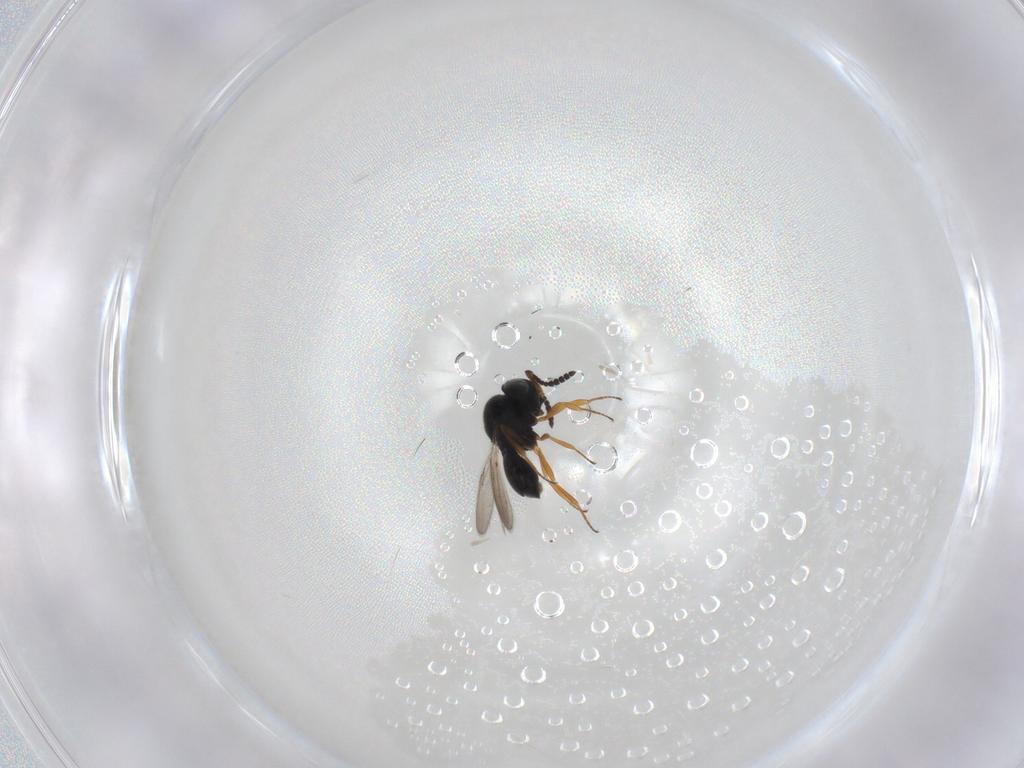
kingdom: Animalia
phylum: Arthropoda
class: Insecta
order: Hymenoptera
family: Scelionidae
